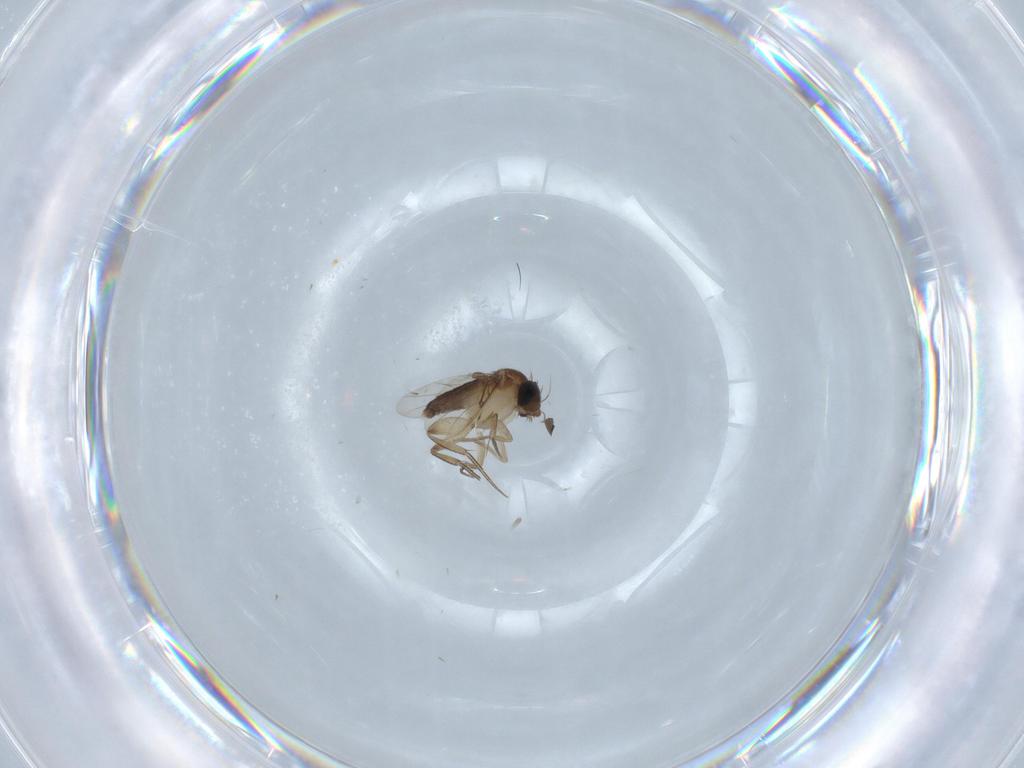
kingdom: Animalia
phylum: Arthropoda
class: Insecta
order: Diptera
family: Phoridae
